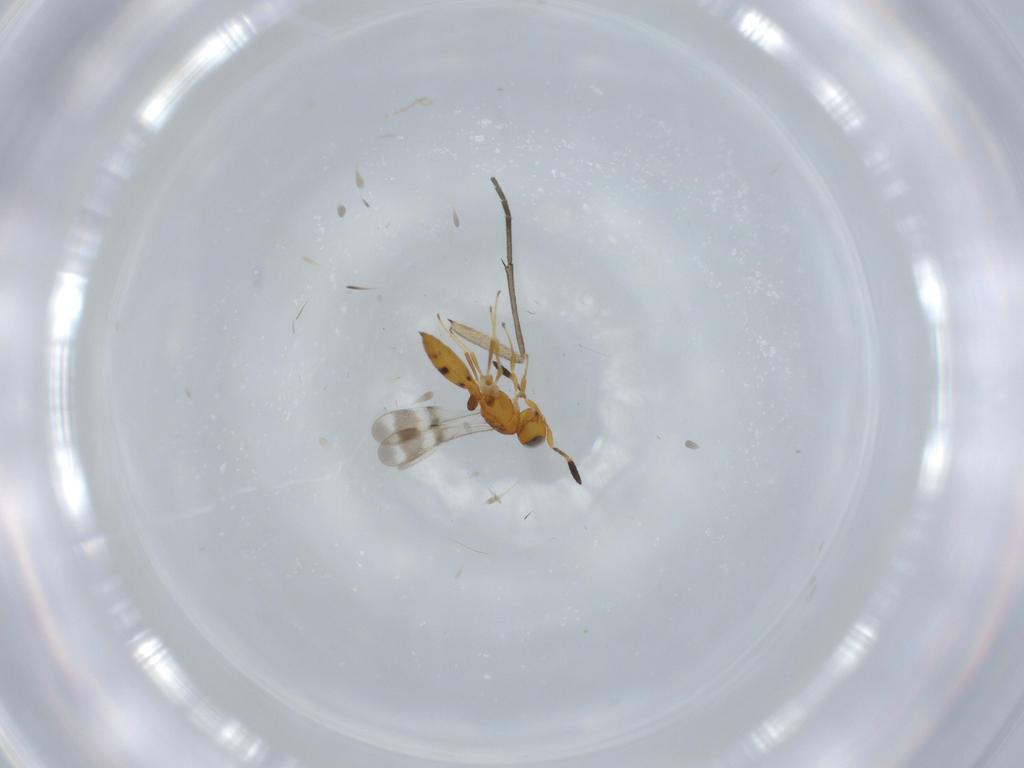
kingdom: Animalia
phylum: Arthropoda
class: Insecta
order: Hymenoptera
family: Scelionidae
